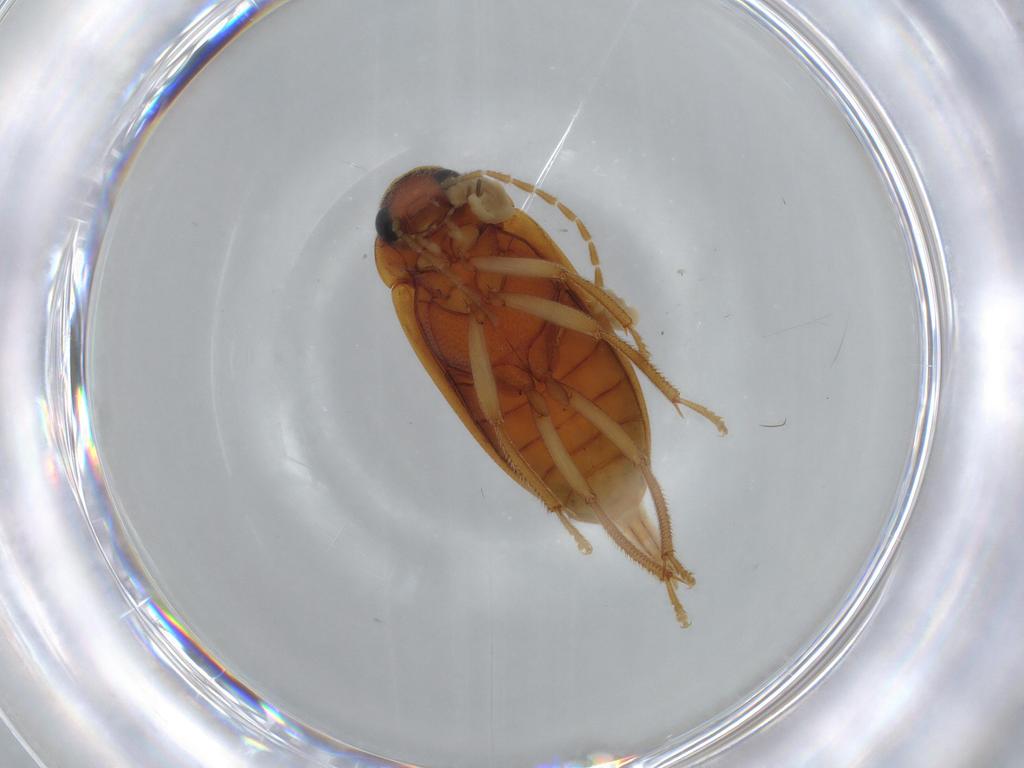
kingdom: Animalia
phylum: Arthropoda
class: Insecta
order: Coleoptera
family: Ptilodactylidae
